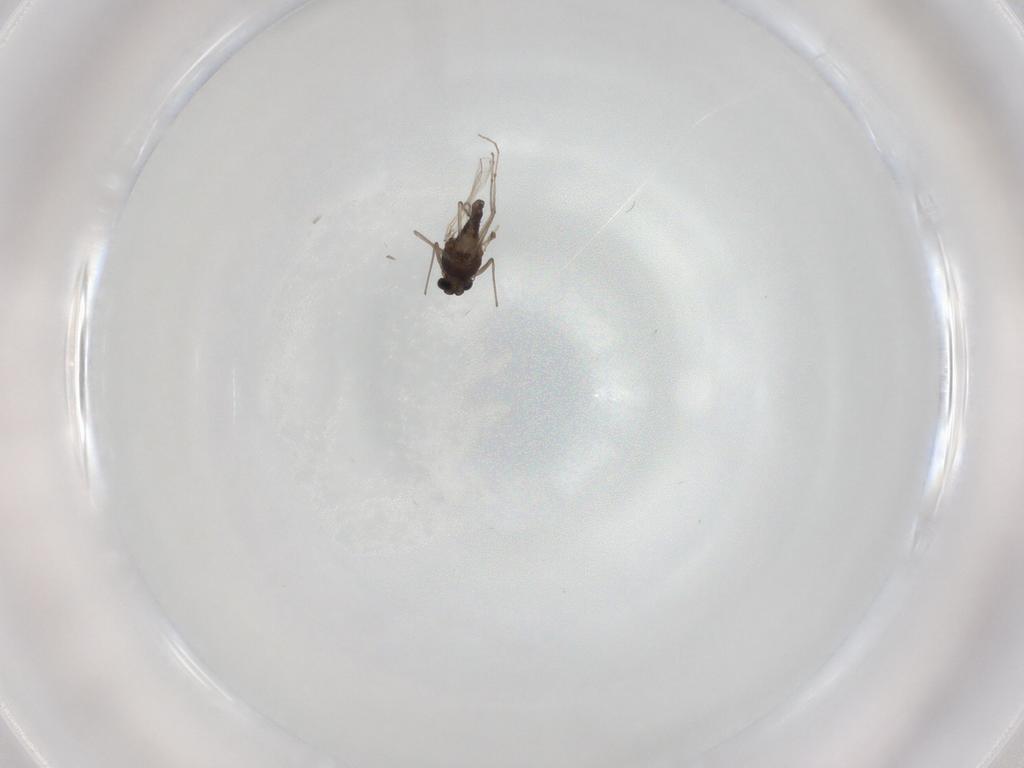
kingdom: Animalia
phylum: Arthropoda
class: Insecta
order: Diptera
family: Chironomidae
